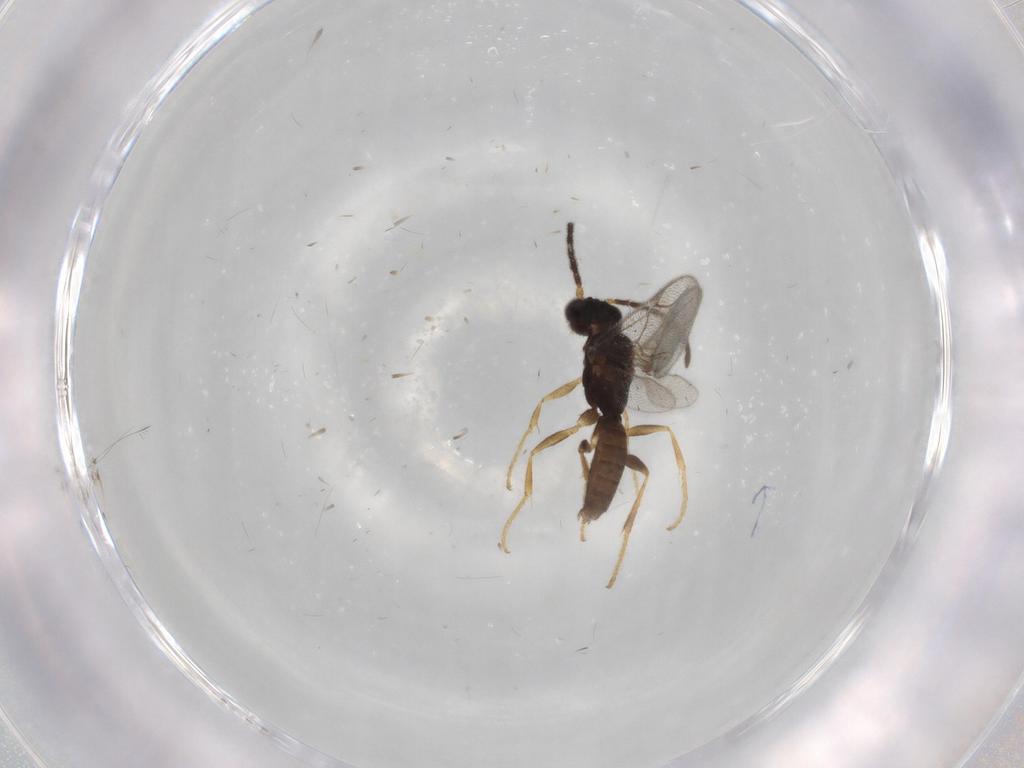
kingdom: Animalia
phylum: Arthropoda
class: Insecta
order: Hymenoptera
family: Dryinidae
